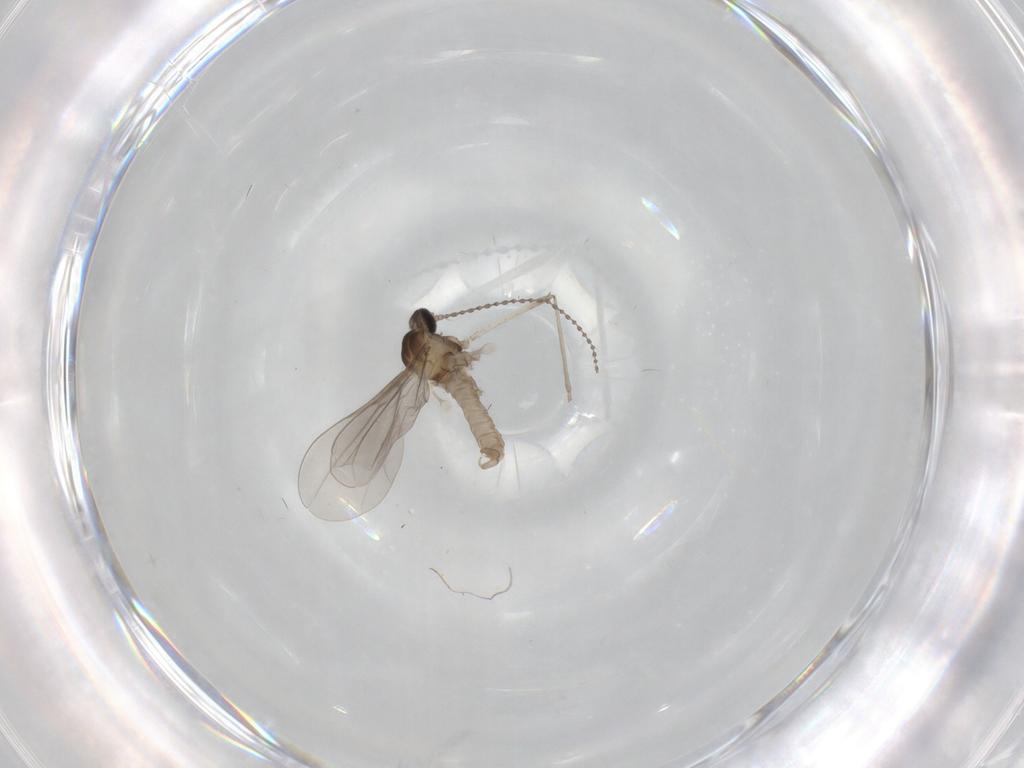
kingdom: Animalia
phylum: Arthropoda
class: Insecta
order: Diptera
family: Cecidomyiidae
